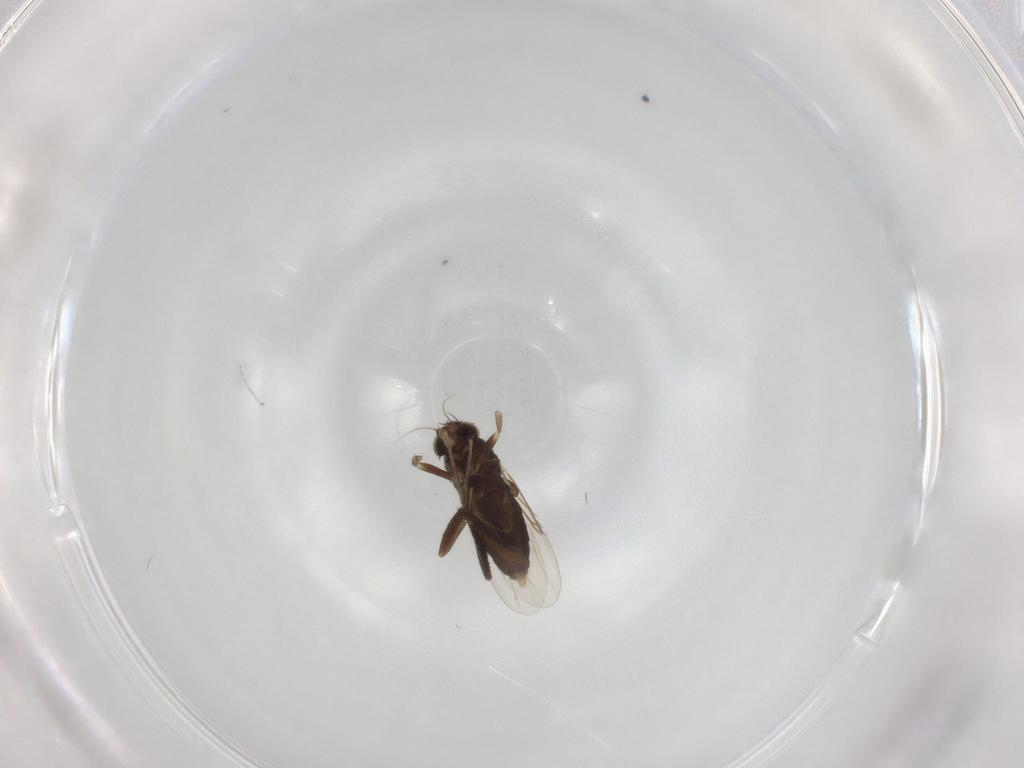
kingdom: Animalia
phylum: Arthropoda
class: Insecta
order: Diptera
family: Phoridae
